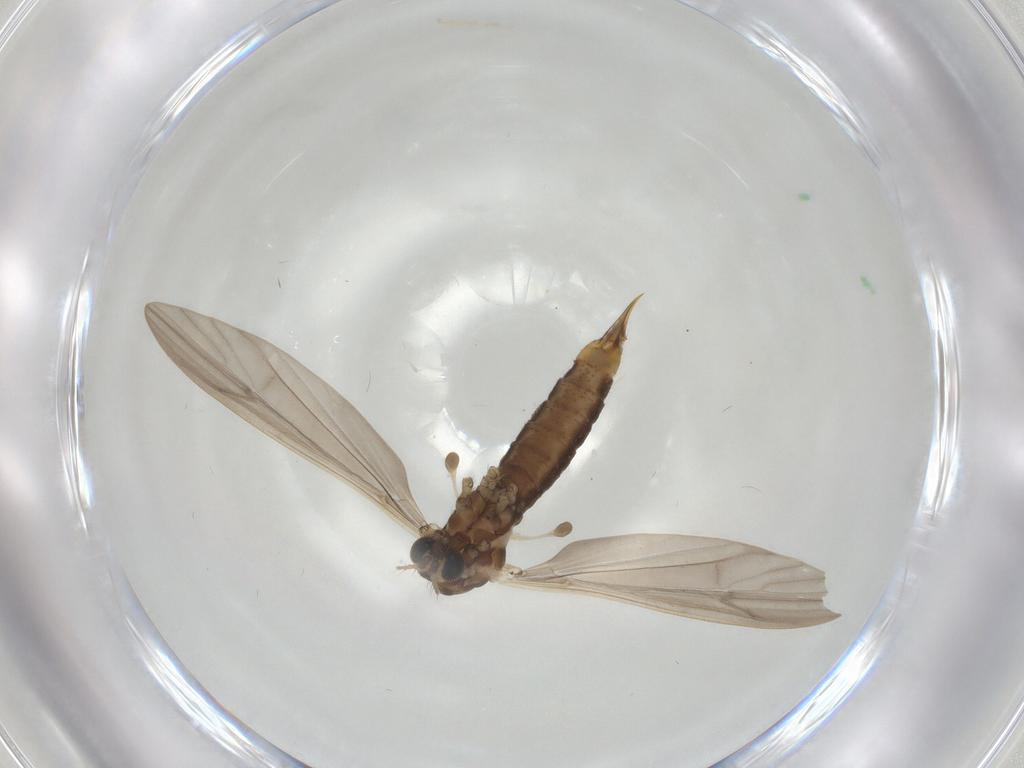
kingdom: Animalia
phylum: Arthropoda
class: Insecta
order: Diptera
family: Limoniidae
